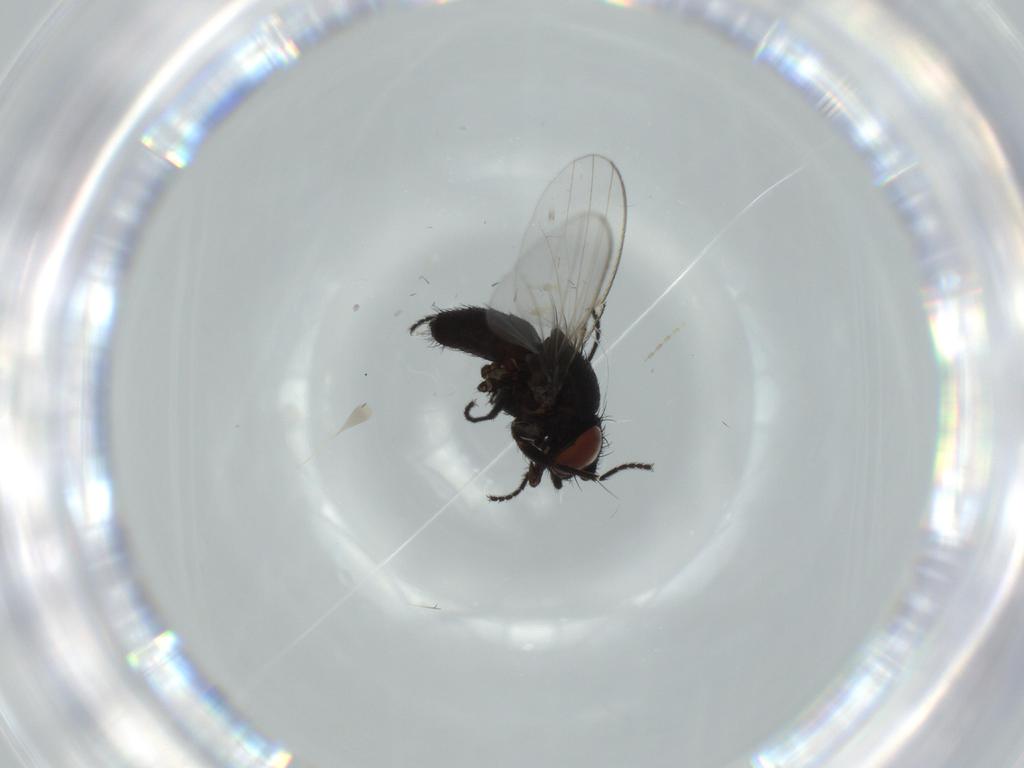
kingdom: Animalia
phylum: Arthropoda
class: Insecta
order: Diptera
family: Milichiidae
